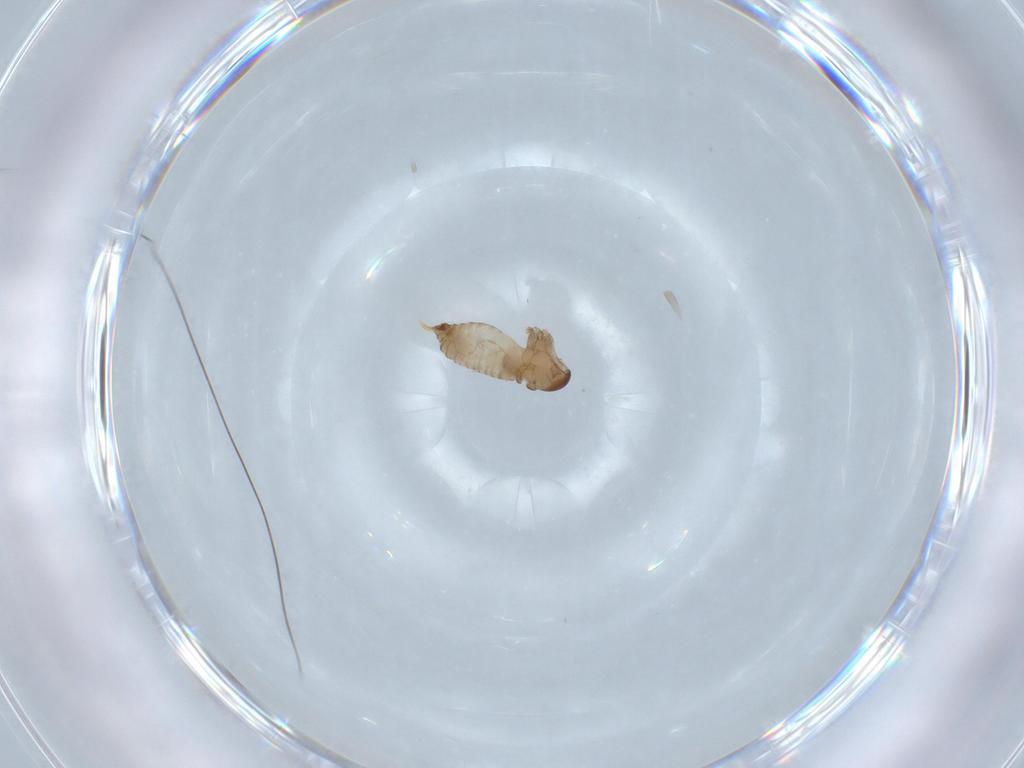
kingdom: Animalia
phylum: Arthropoda
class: Insecta
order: Diptera
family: Psychodidae
